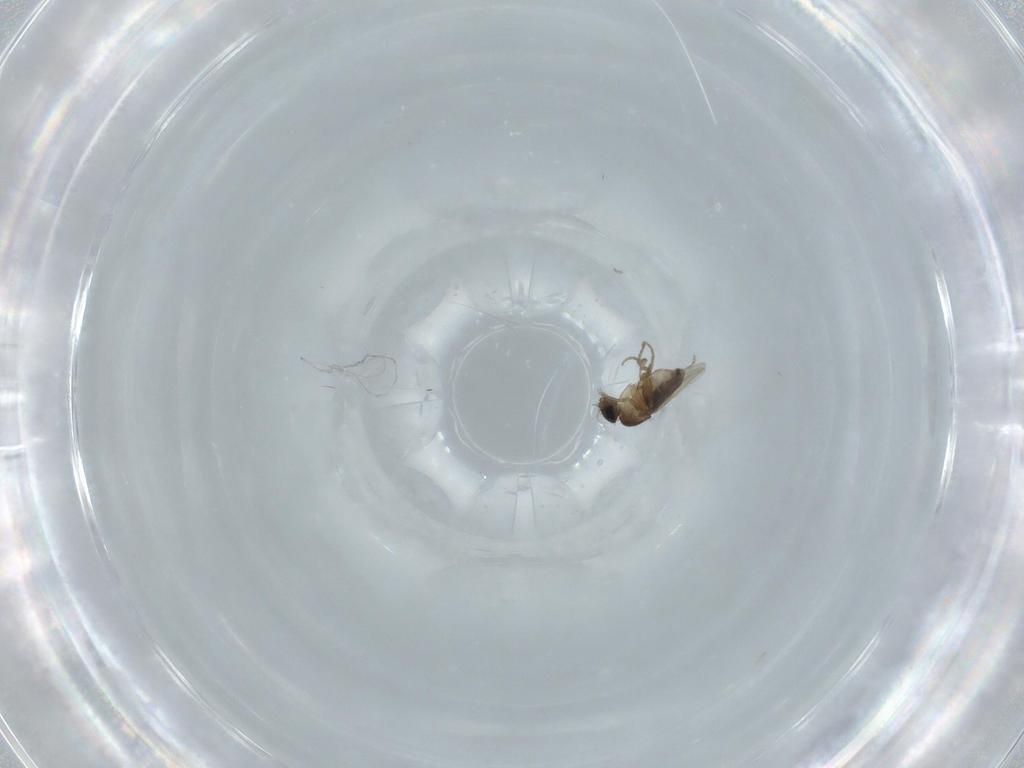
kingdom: Animalia
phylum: Arthropoda
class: Insecta
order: Diptera
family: Phoridae
